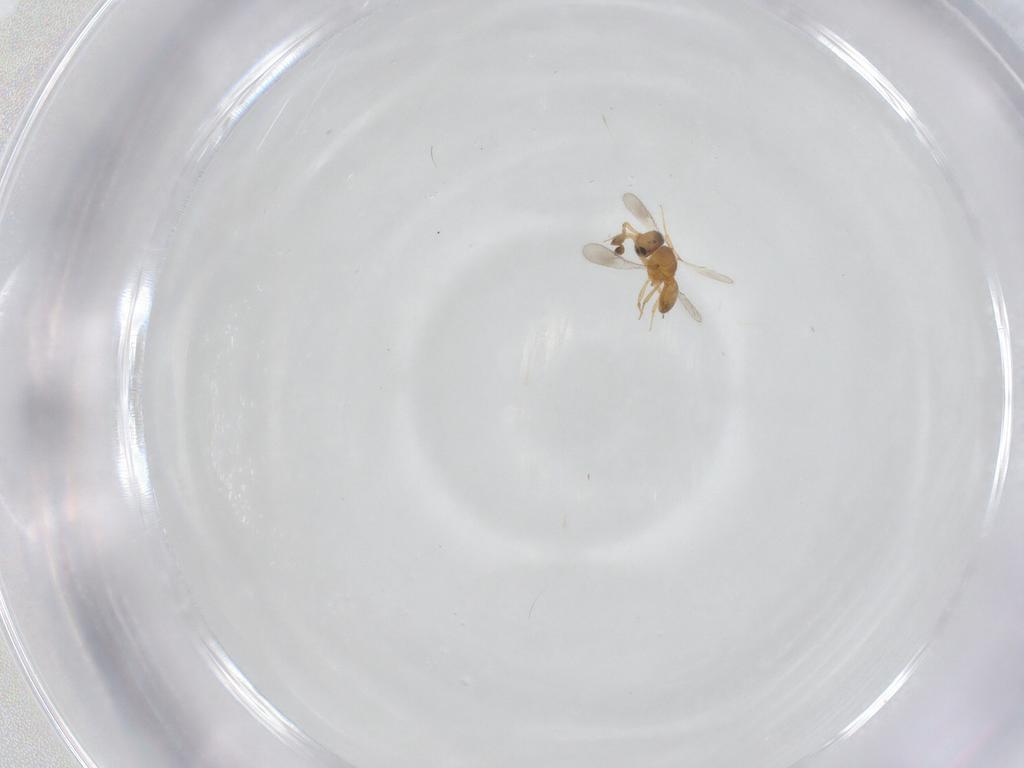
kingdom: Animalia
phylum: Arthropoda
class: Insecta
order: Hymenoptera
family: Scelionidae
